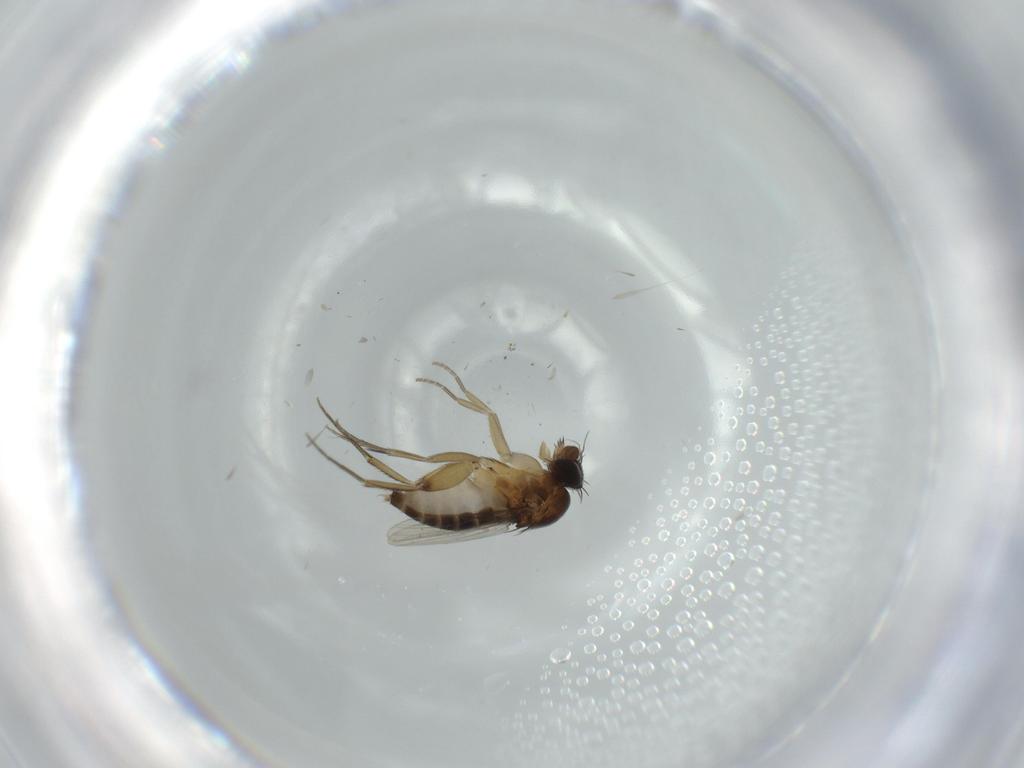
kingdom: Animalia
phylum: Arthropoda
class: Insecta
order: Diptera
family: Phoridae
